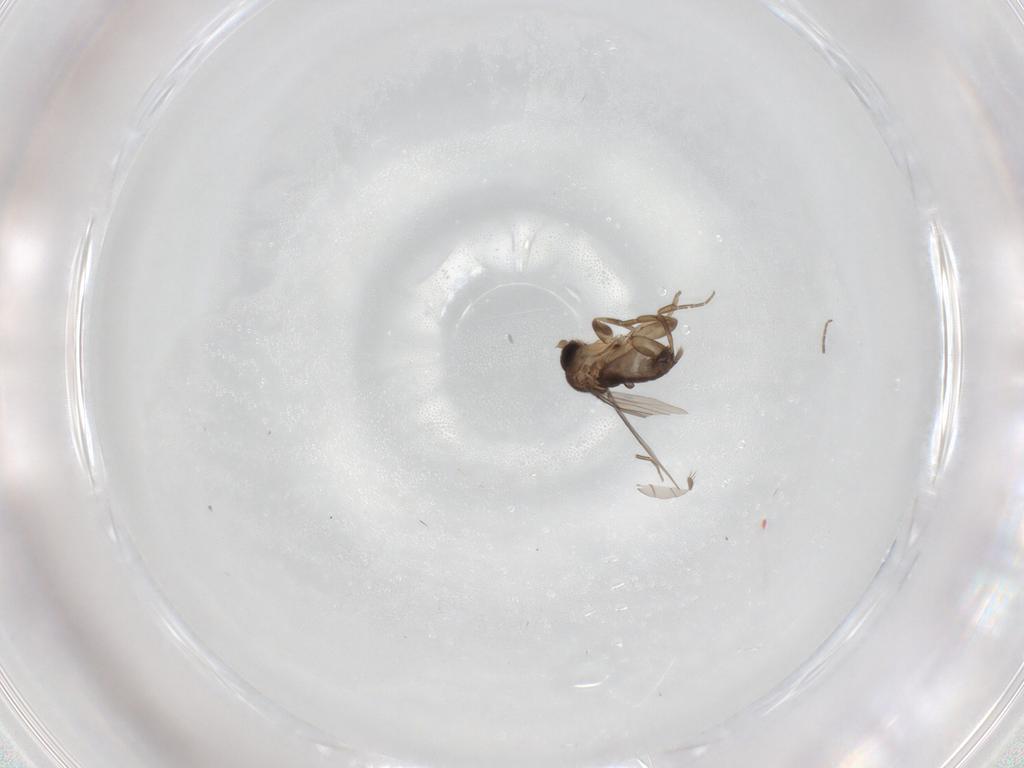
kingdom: Animalia
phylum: Arthropoda
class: Insecta
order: Diptera
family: Phoridae
